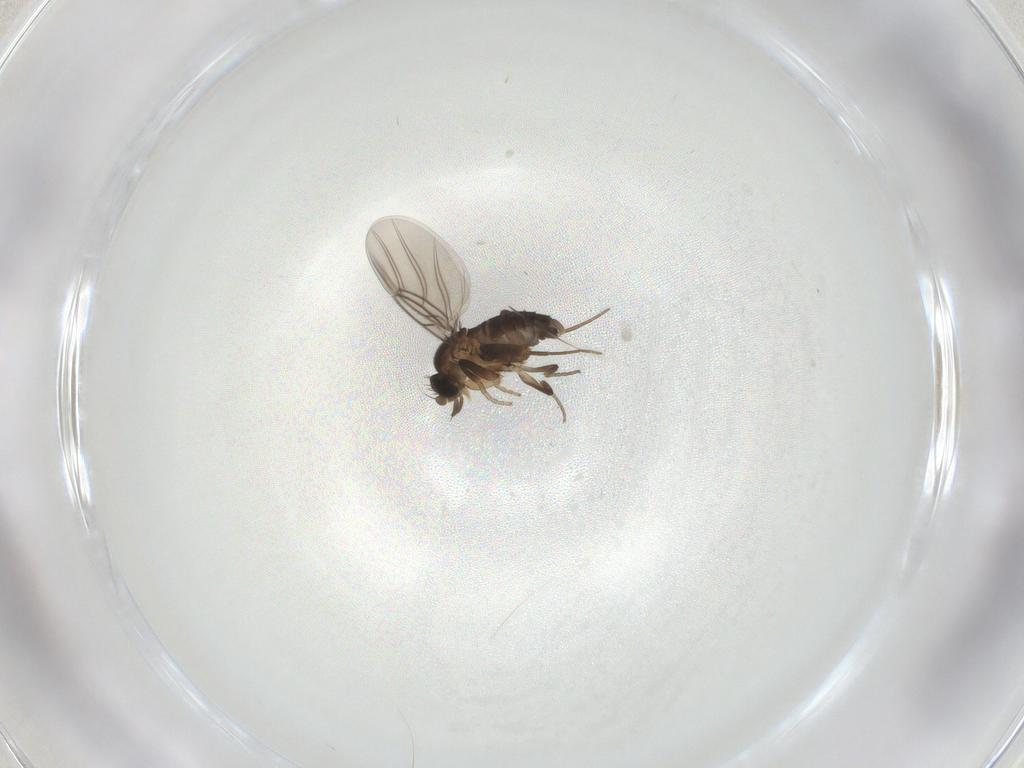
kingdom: Animalia
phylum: Arthropoda
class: Insecta
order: Diptera
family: Phoridae
